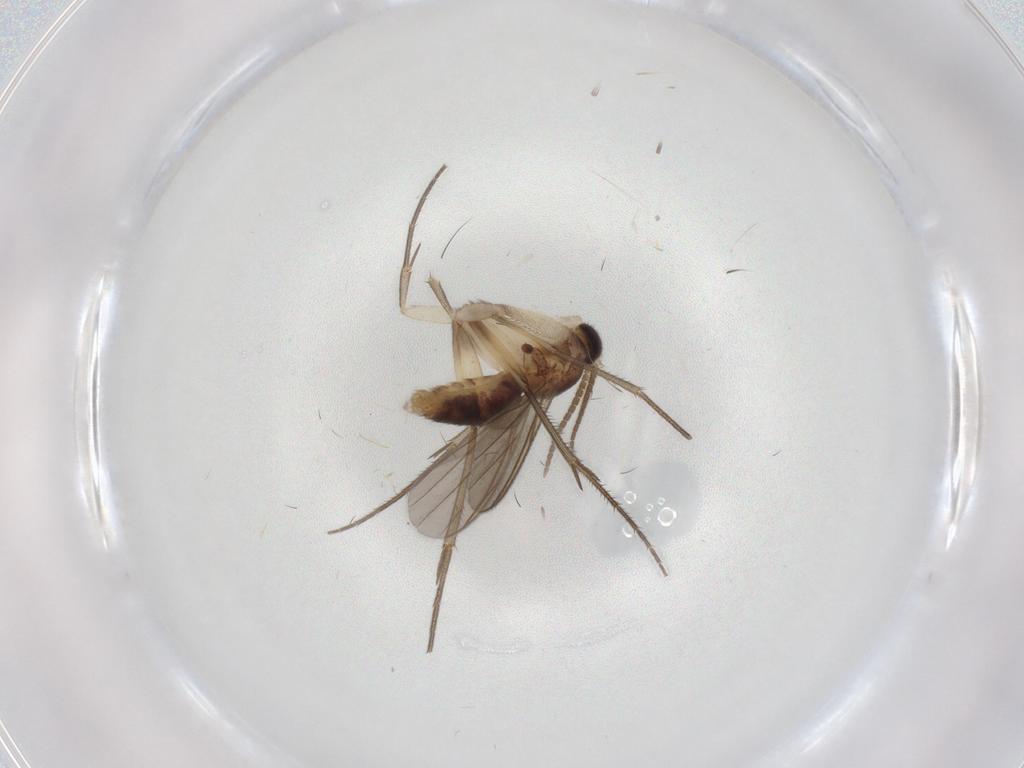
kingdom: Animalia
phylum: Arthropoda
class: Insecta
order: Diptera
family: Mycetophilidae
